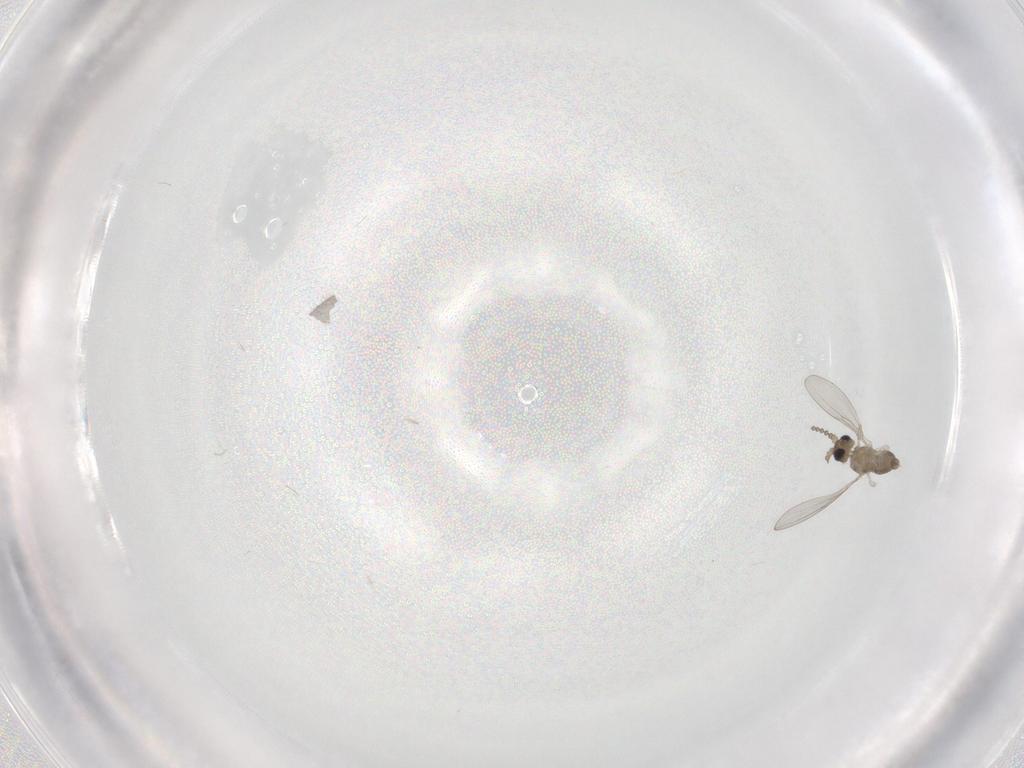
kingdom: Animalia
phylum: Arthropoda
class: Insecta
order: Diptera
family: Cecidomyiidae
